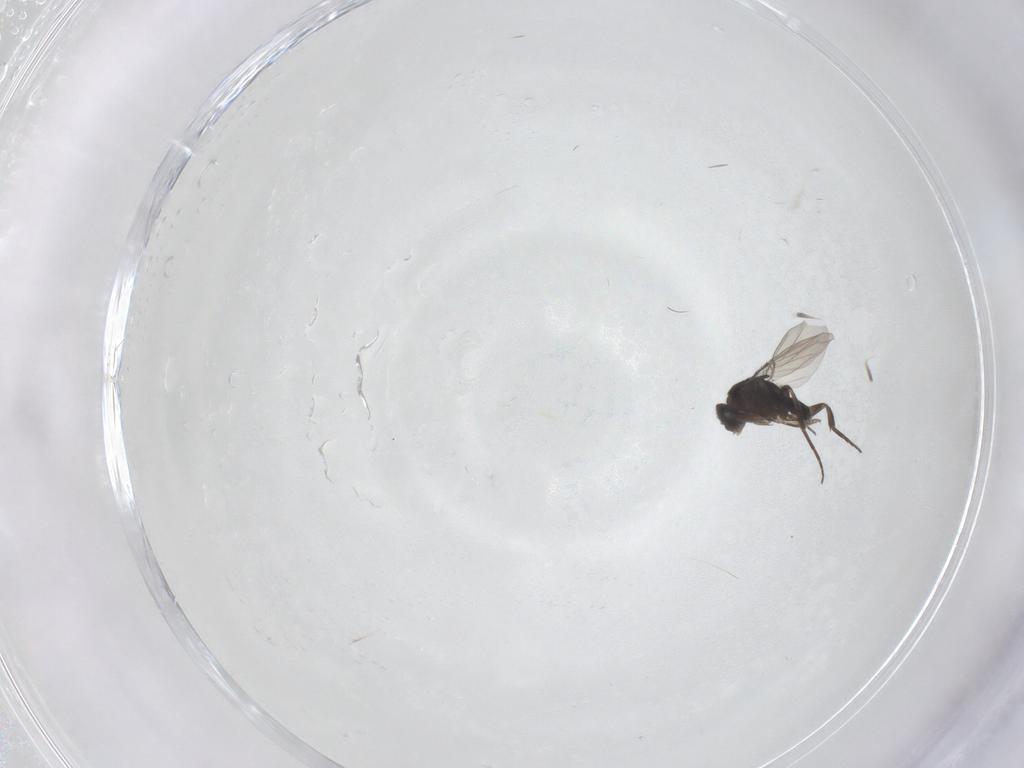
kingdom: Animalia
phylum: Arthropoda
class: Insecta
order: Diptera
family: Phoridae
